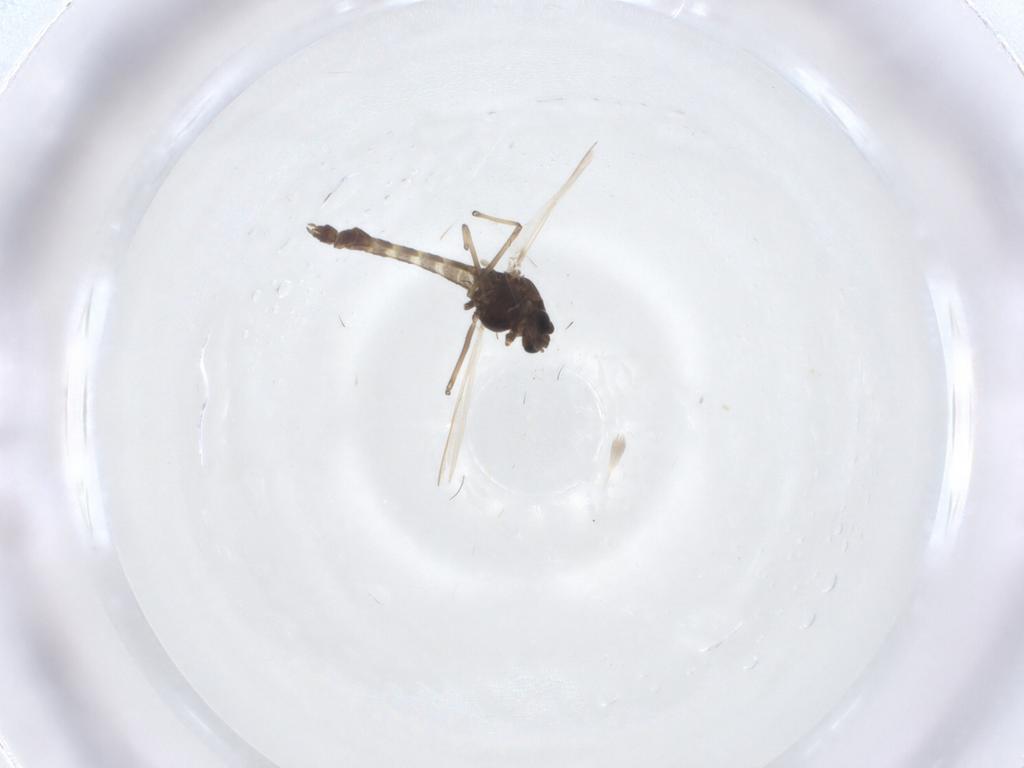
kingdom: Animalia
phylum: Arthropoda
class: Insecta
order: Diptera
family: Chironomidae
